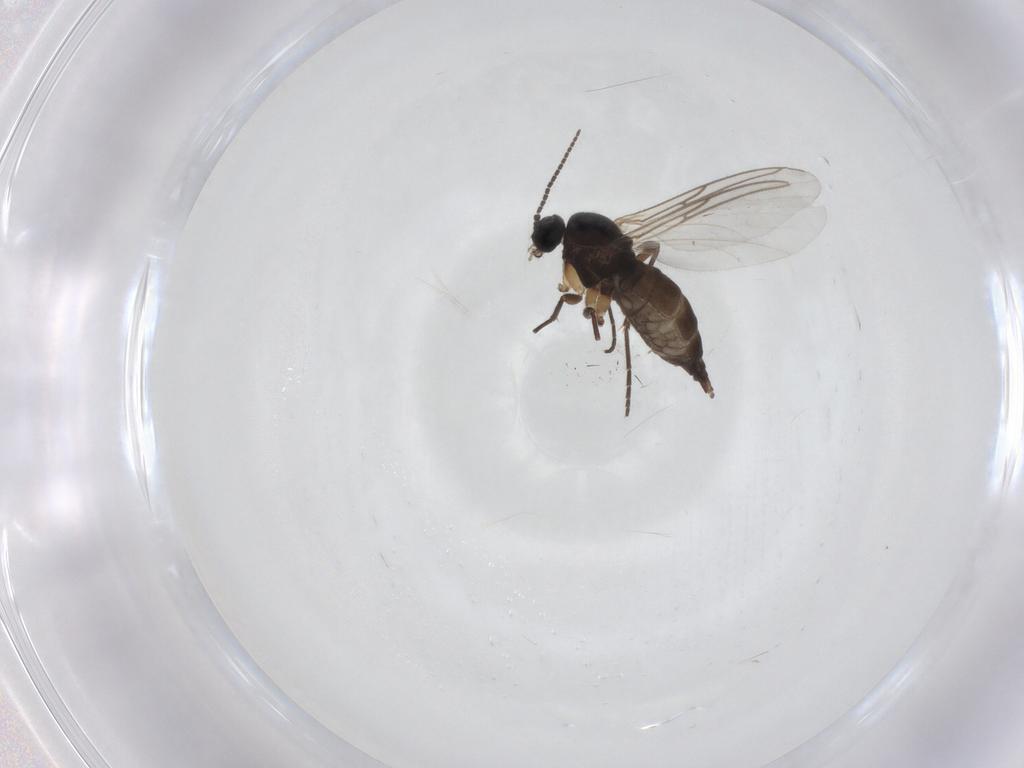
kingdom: Animalia
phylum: Arthropoda
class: Insecta
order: Diptera
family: Sciaridae
